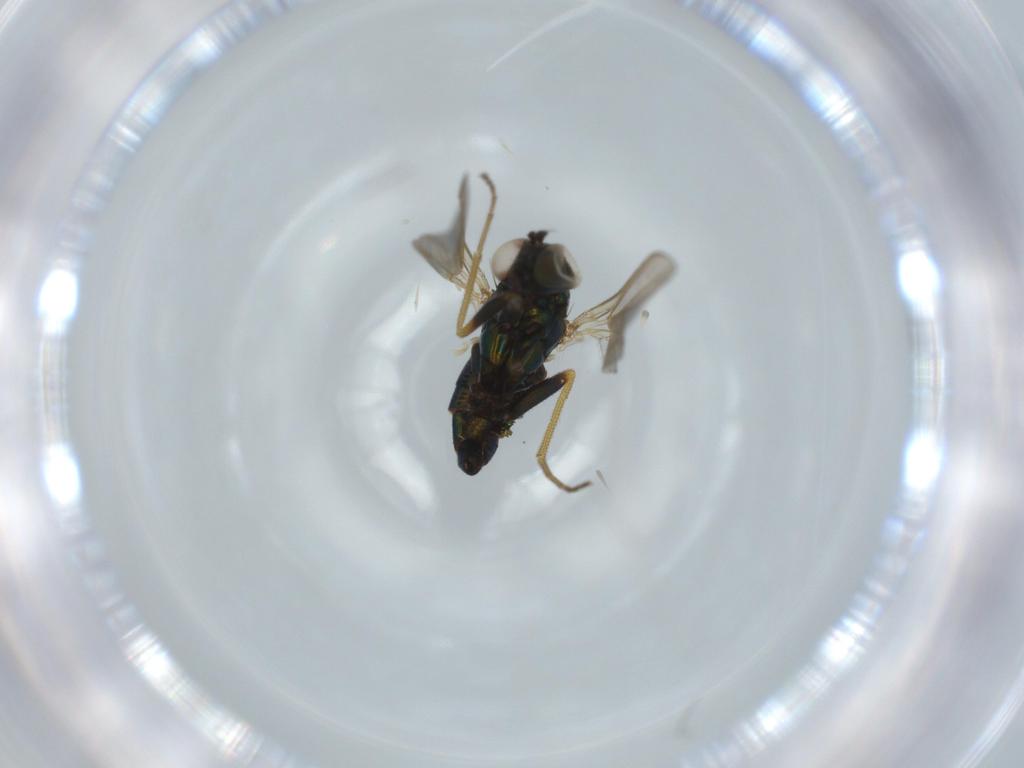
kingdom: Animalia
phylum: Arthropoda
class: Insecta
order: Diptera
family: Dolichopodidae
